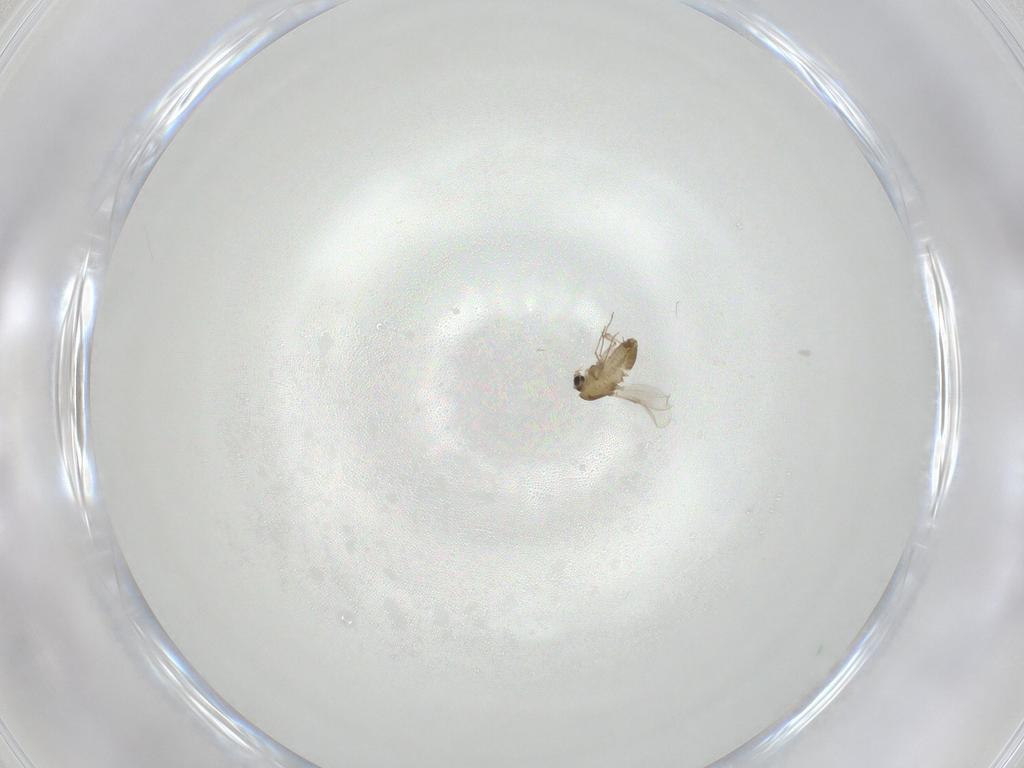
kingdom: Animalia
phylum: Arthropoda
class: Insecta
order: Diptera
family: Chironomidae
